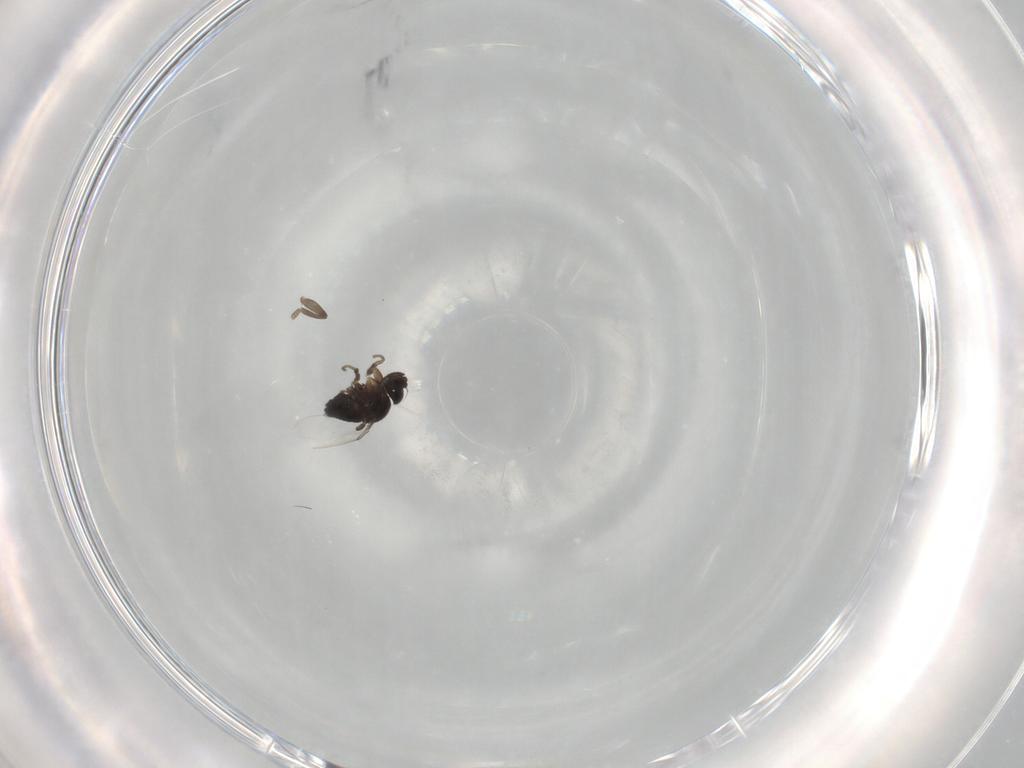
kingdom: Animalia
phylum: Arthropoda
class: Insecta
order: Diptera
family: Phoridae
